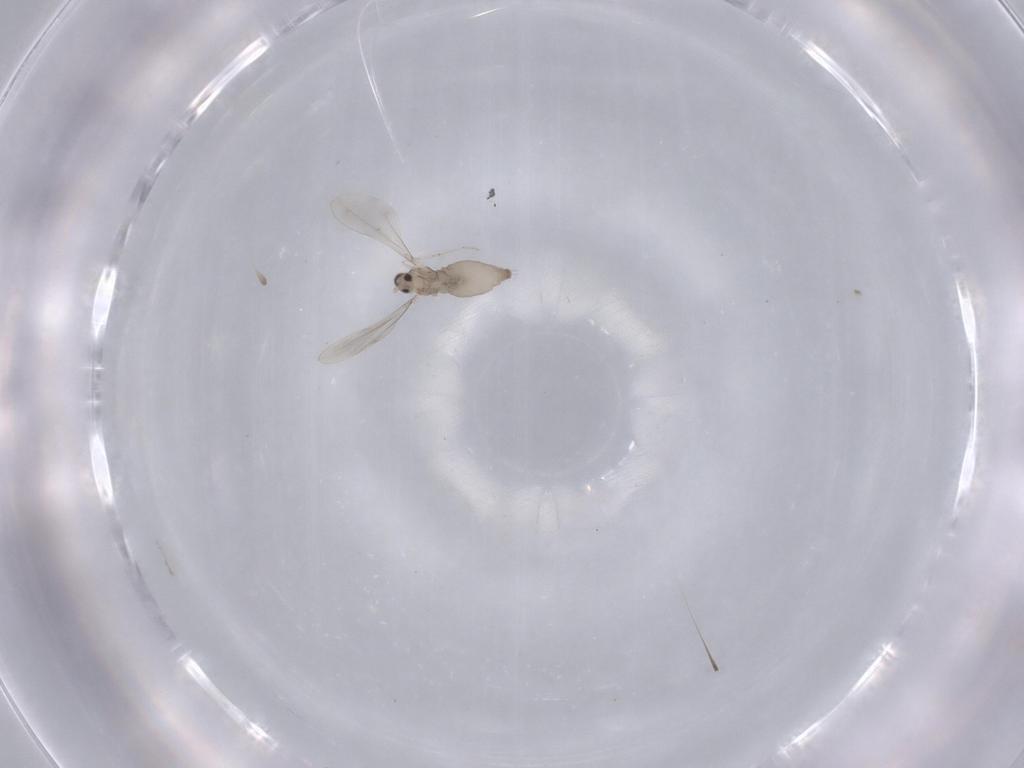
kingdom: Animalia
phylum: Arthropoda
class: Insecta
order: Diptera
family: Sciaridae
